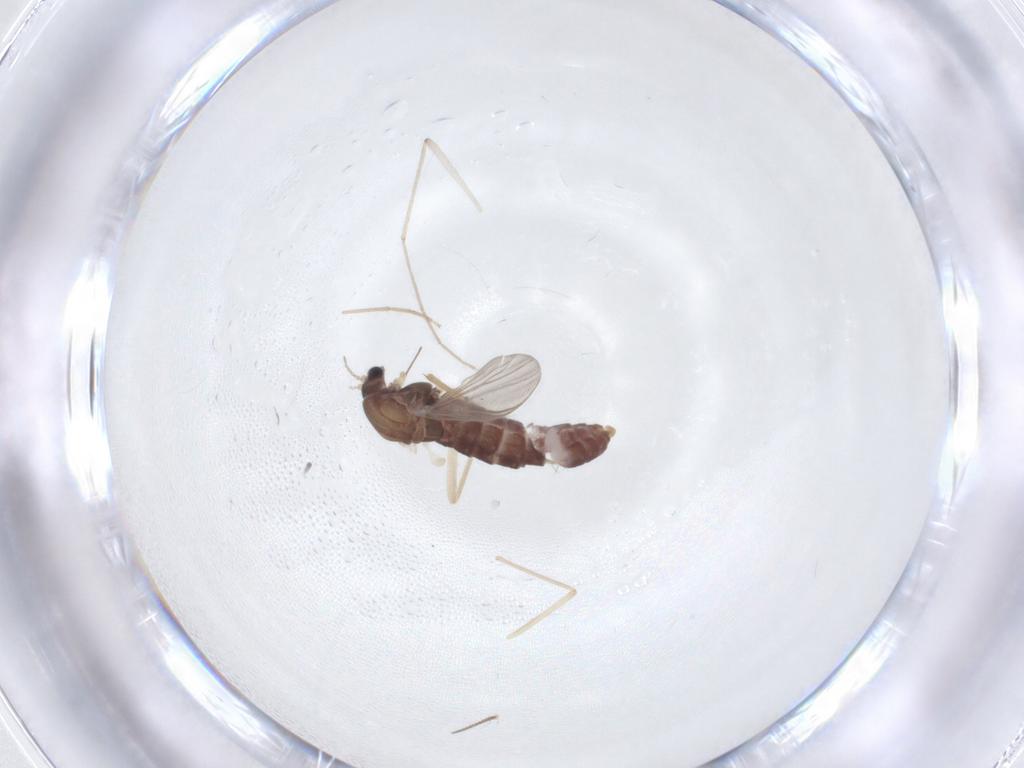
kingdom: Animalia
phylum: Arthropoda
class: Insecta
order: Diptera
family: Chironomidae
